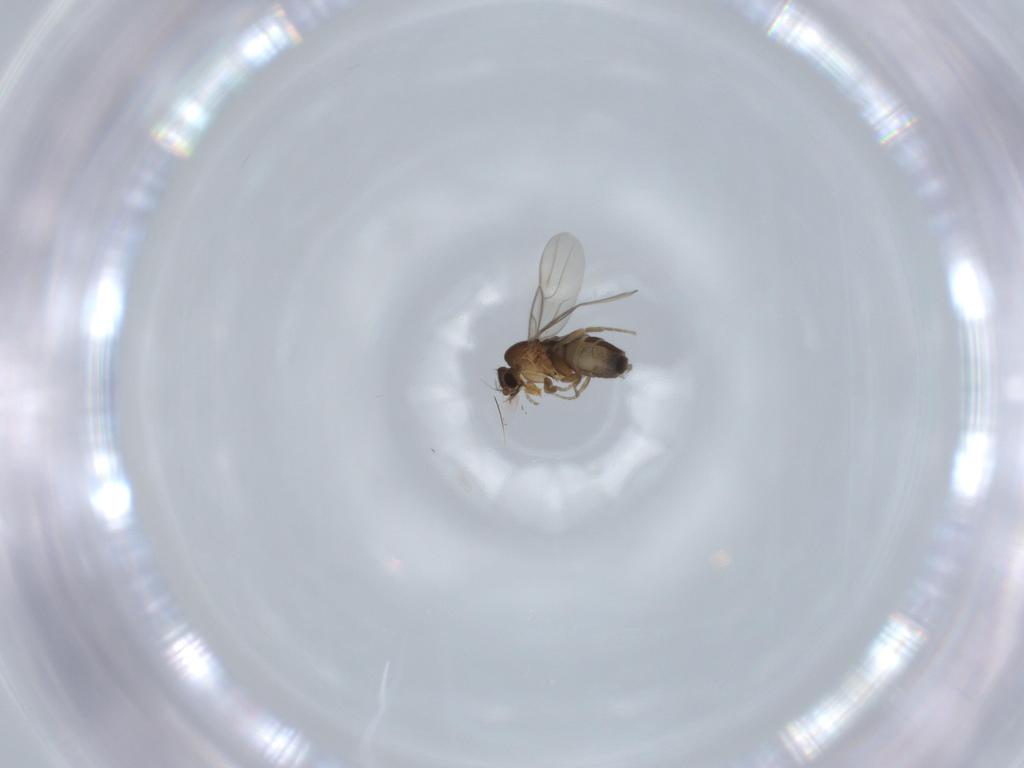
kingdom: Animalia
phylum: Arthropoda
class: Insecta
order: Diptera
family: Phoridae
